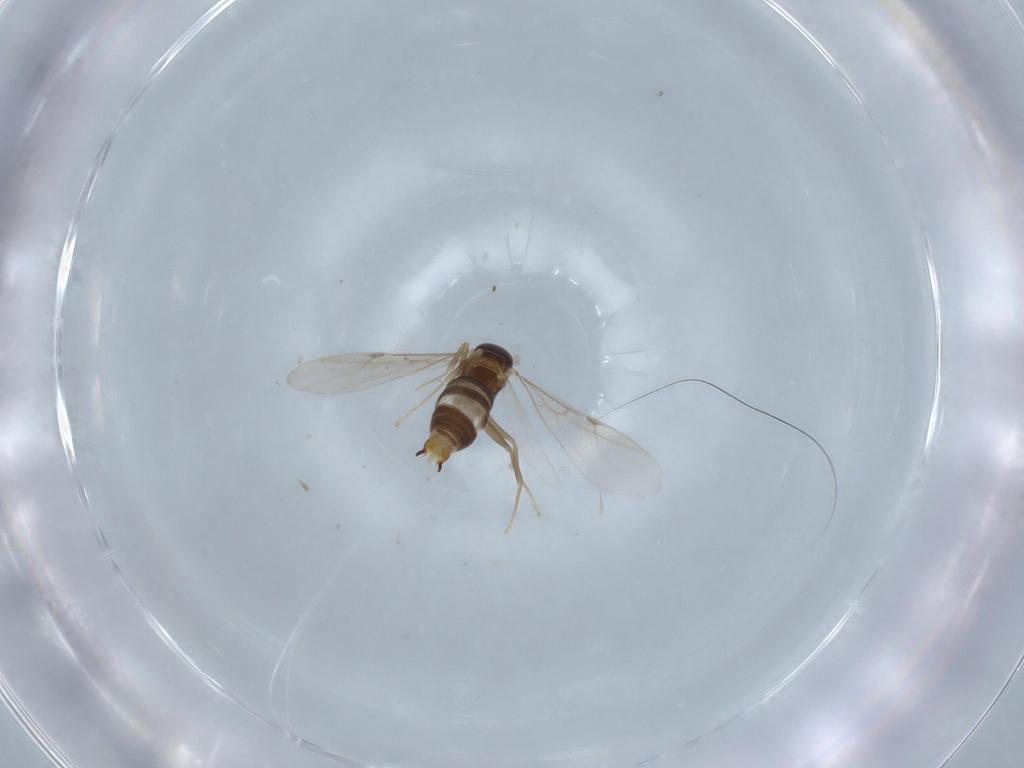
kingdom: Animalia
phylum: Arthropoda
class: Insecta
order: Hymenoptera
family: Formicidae
